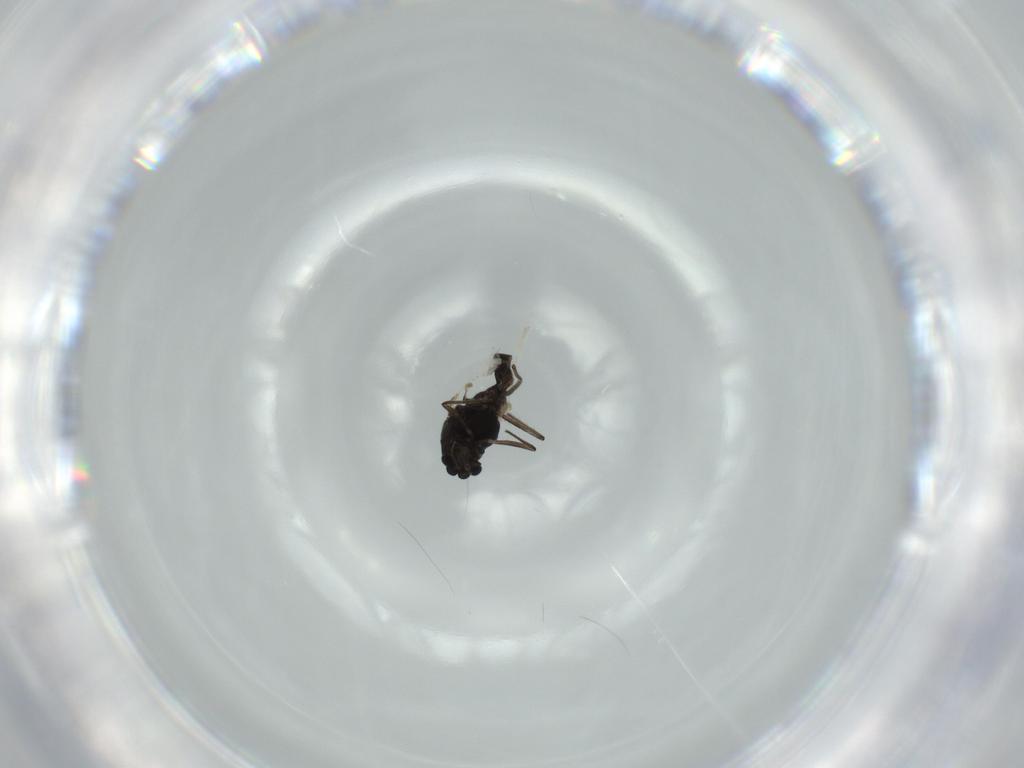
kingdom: Animalia
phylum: Arthropoda
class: Insecta
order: Diptera
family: Chironomidae
